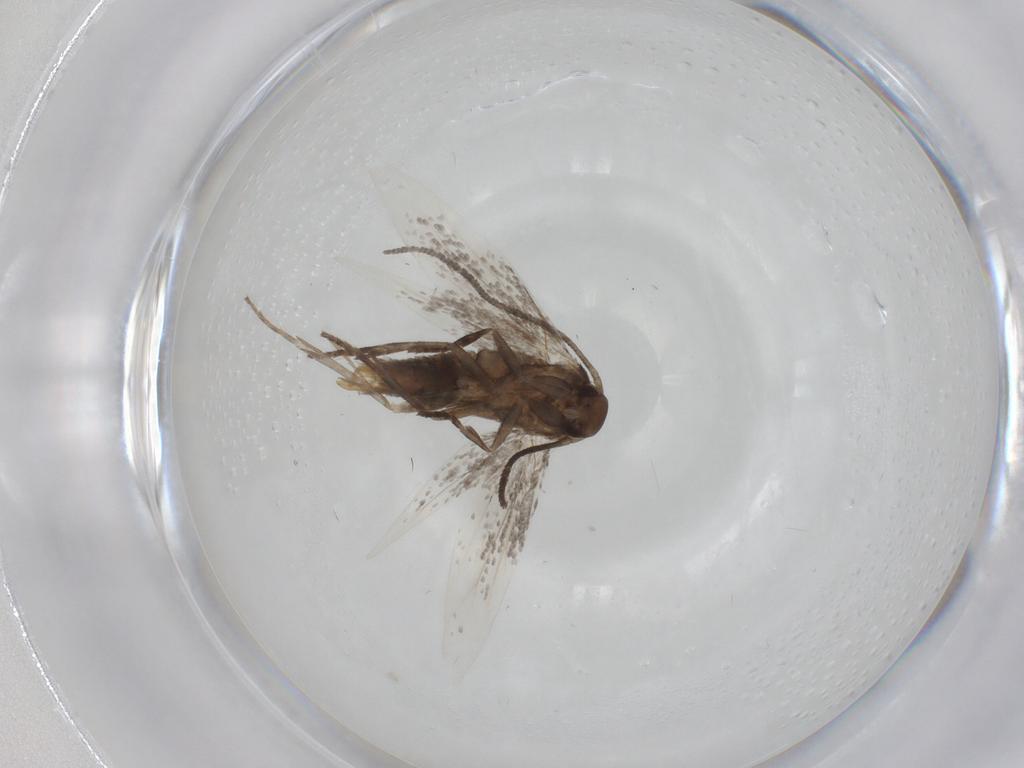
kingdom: Animalia
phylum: Arthropoda
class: Insecta
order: Lepidoptera
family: Elachistidae
